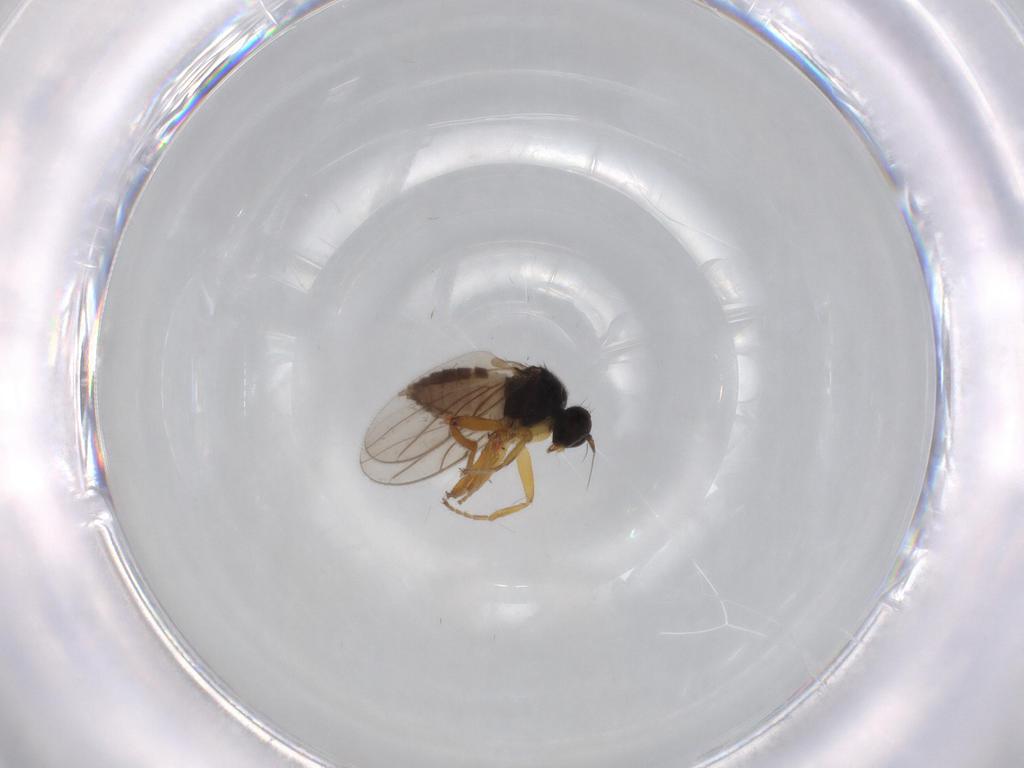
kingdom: Animalia
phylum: Arthropoda
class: Insecta
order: Diptera
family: Hybotidae
